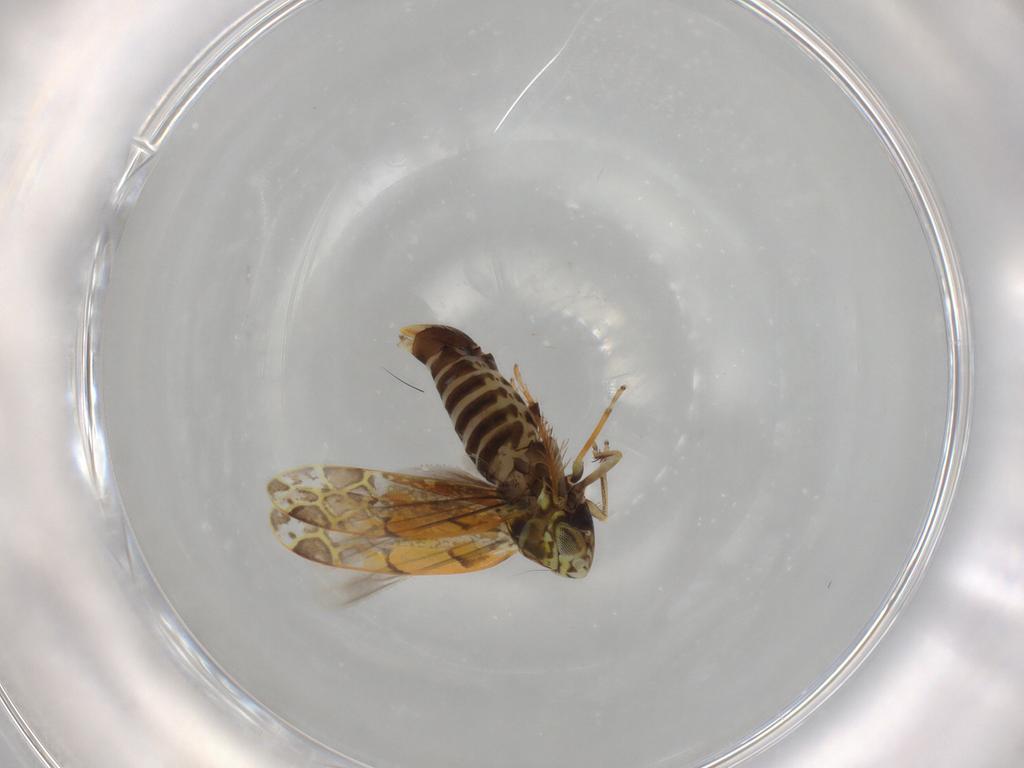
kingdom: Animalia
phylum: Arthropoda
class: Insecta
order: Hemiptera
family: Cicadellidae
